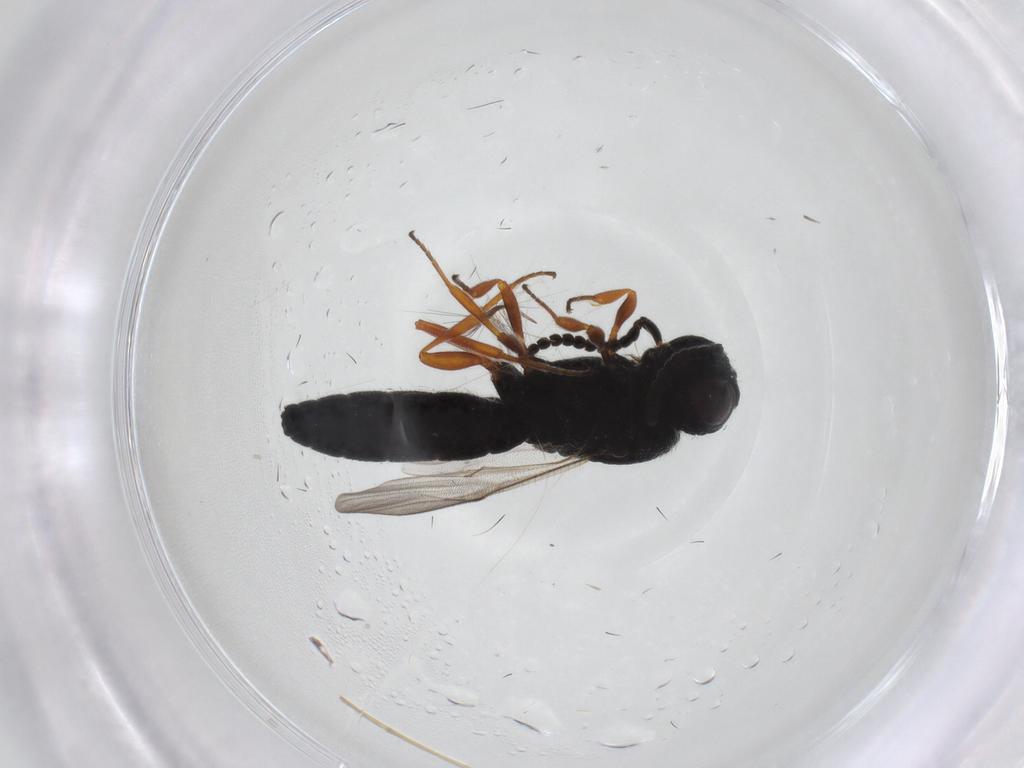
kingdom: Animalia
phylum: Arthropoda
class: Insecta
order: Hymenoptera
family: Scelionidae
